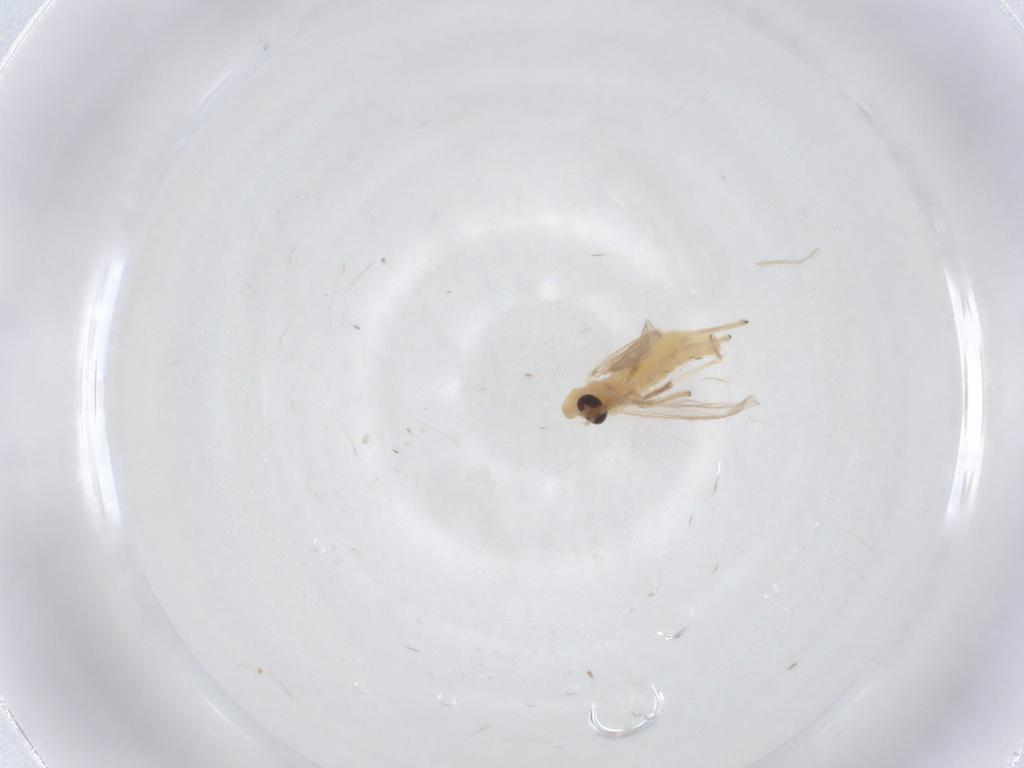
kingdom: Animalia
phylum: Arthropoda
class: Insecta
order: Diptera
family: Chironomidae
